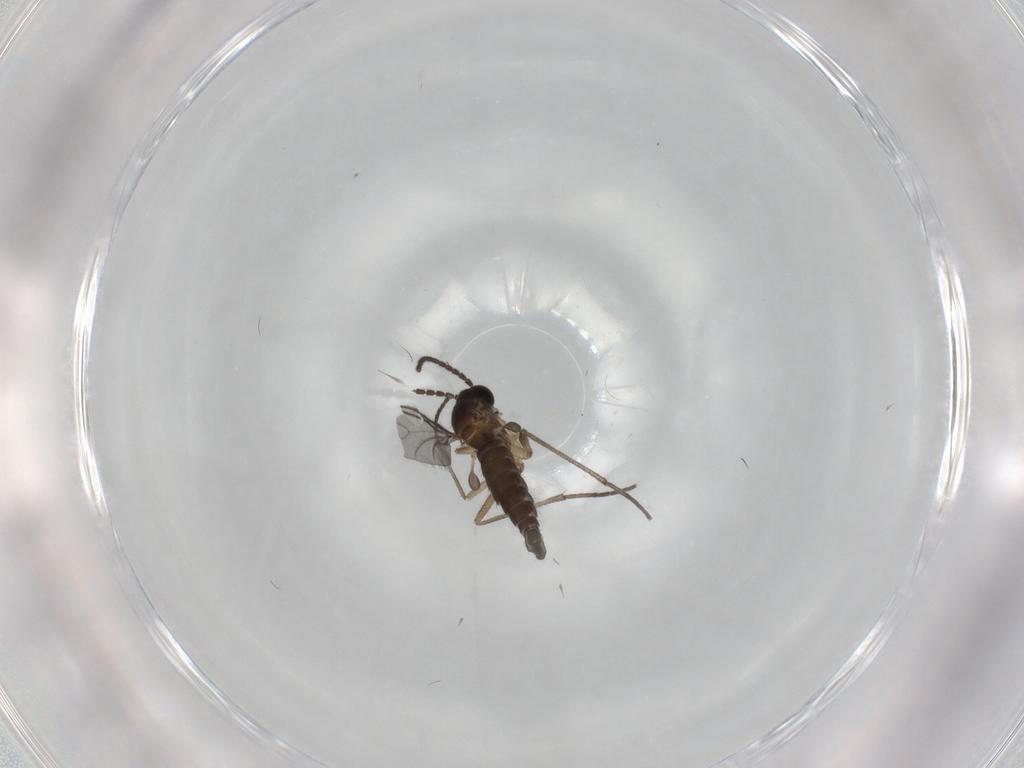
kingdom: Animalia
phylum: Arthropoda
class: Insecta
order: Diptera
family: Sciaridae
